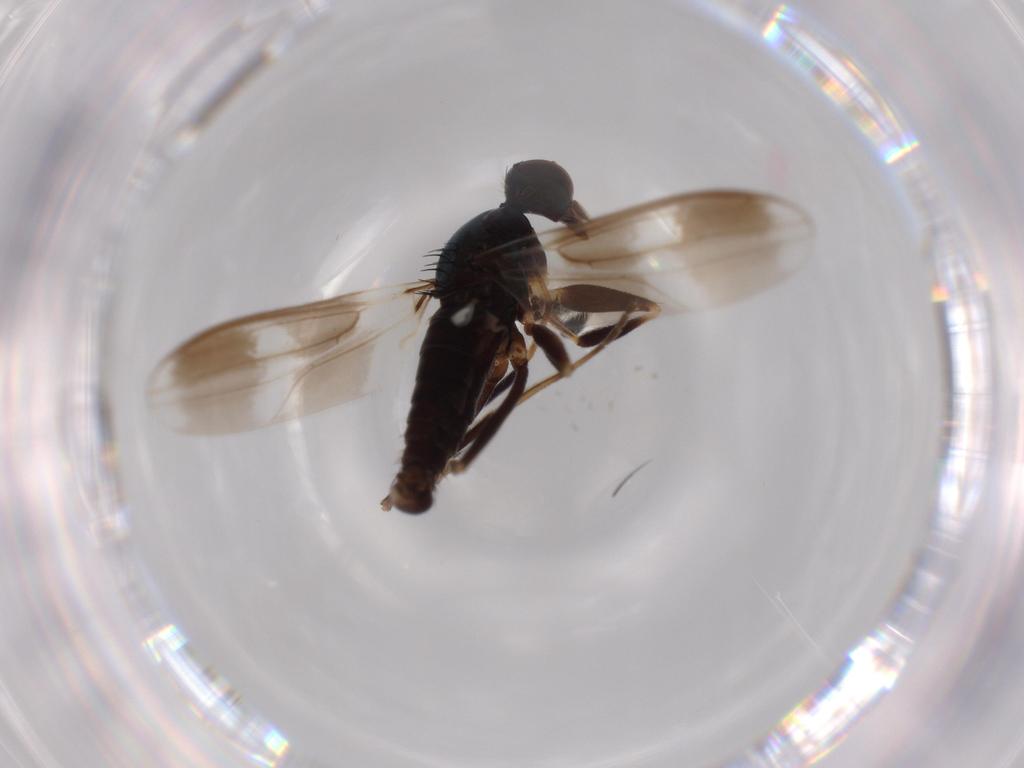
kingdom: Animalia
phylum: Arthropoda
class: Insecta
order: Diptera
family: Hybotidae
